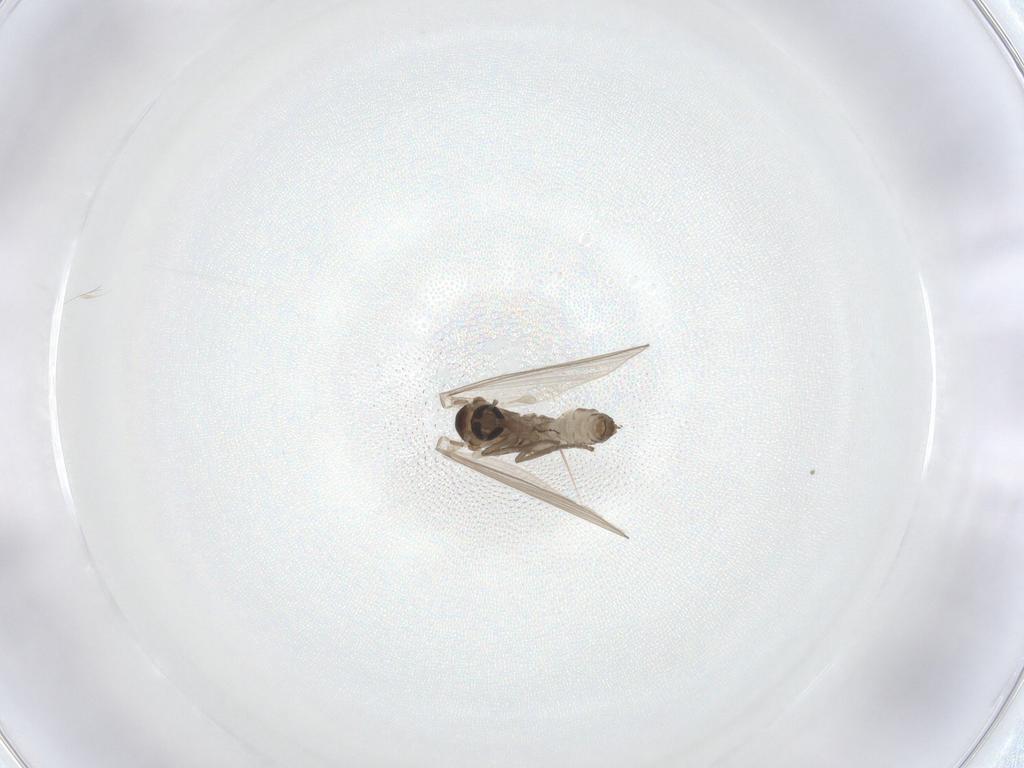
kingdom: Animalia
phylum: Arthropoda
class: Insecta
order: Diptera
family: Psychodidae
